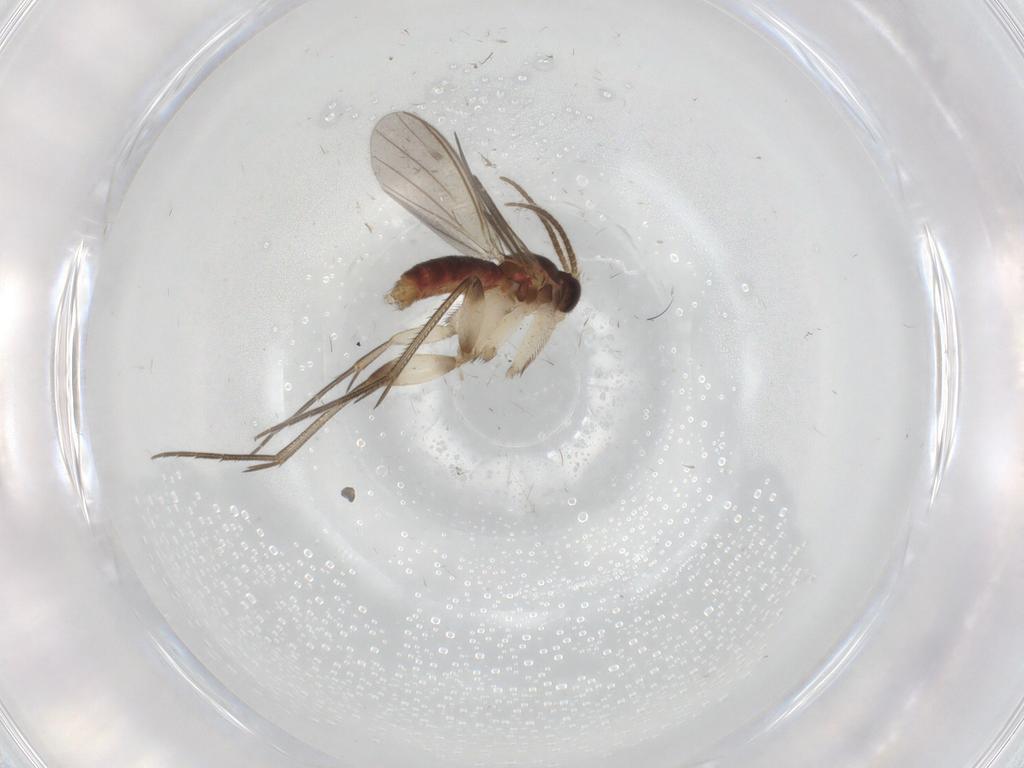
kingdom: Animalia
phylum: Arthropoda
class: Insecta
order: Diptera
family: Mycetophilidae
